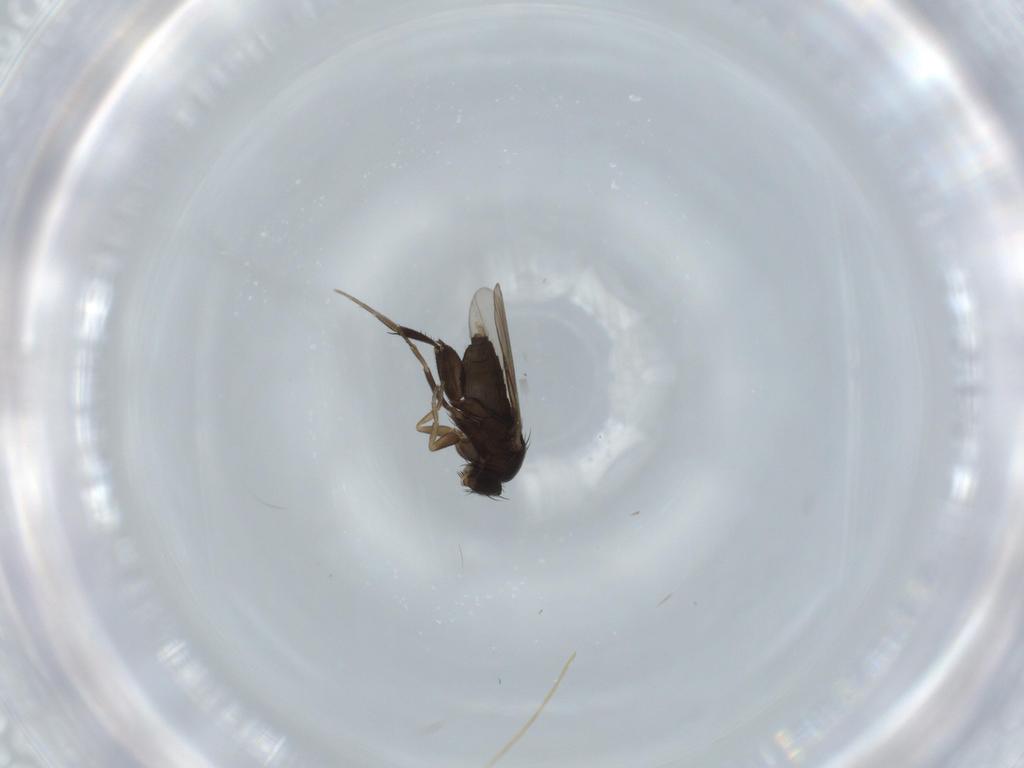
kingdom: Animalia
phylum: Arthropoda
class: Insecta
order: Diptera
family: Phoridae
